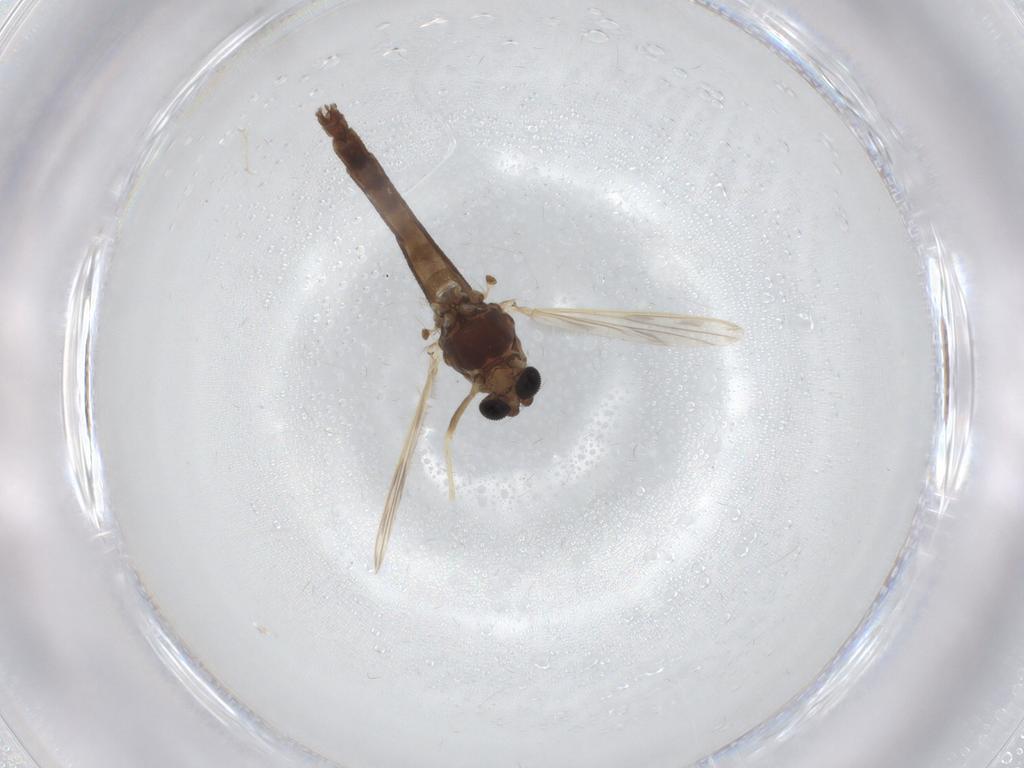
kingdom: Animalia
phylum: Arthropoda
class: Insecta
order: Diptera
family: Chironomidae
